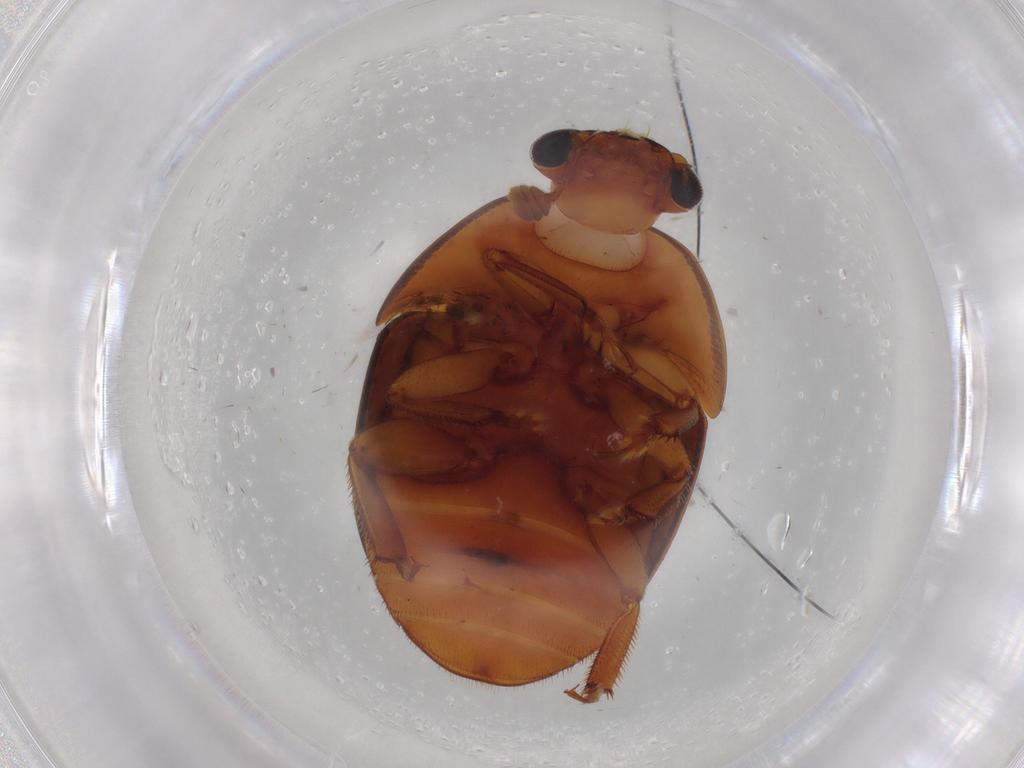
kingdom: Animalia
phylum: Arthropoda
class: Insecta
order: Coleoptera
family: Nitidulidae
